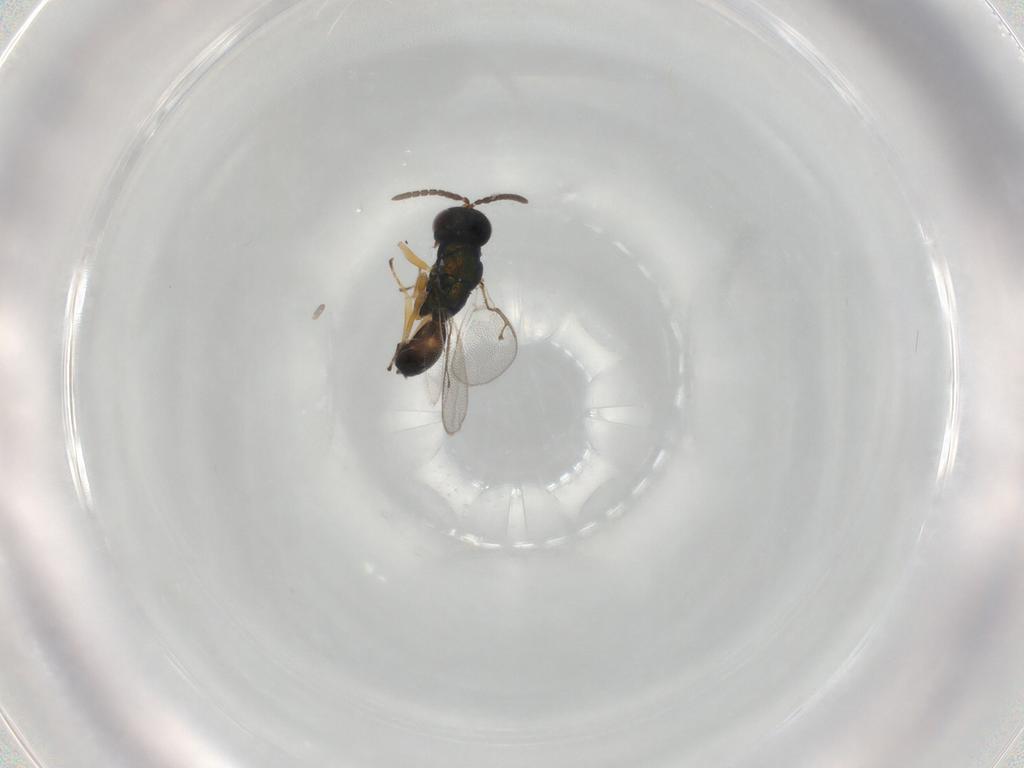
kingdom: Animalia
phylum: Arthropoda
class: Insecta
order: Hymenoptera
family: Pteromalidae
